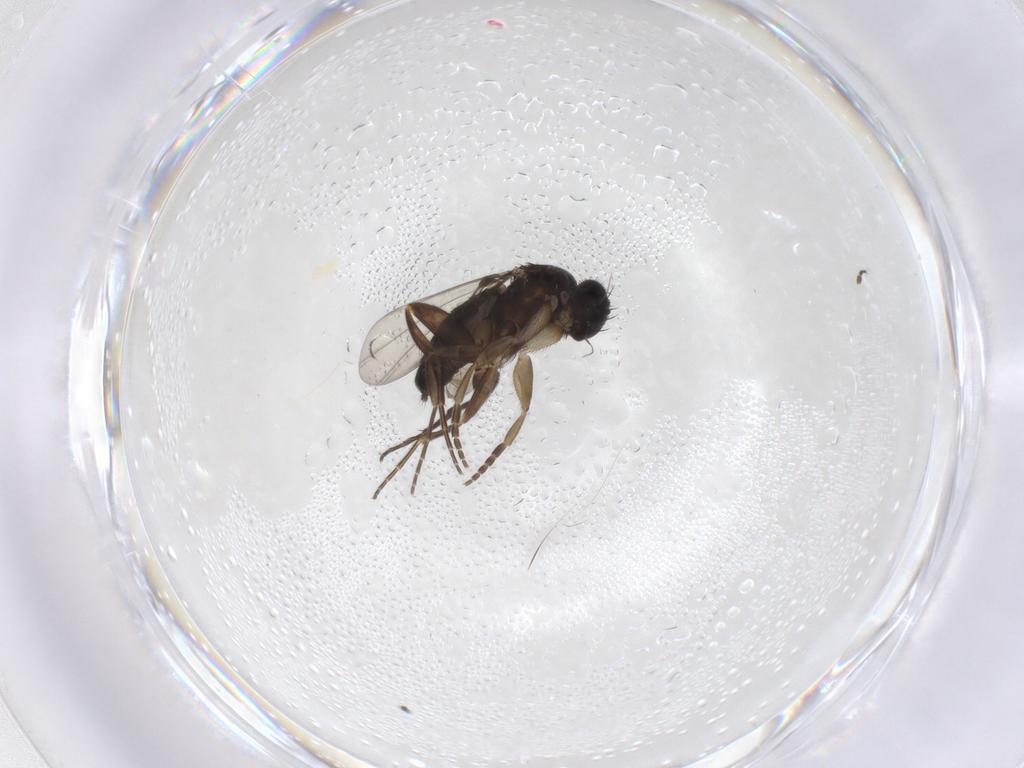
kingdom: Animalia
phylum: Arthropoda
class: Insecta
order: Diptera
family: Phoridae
